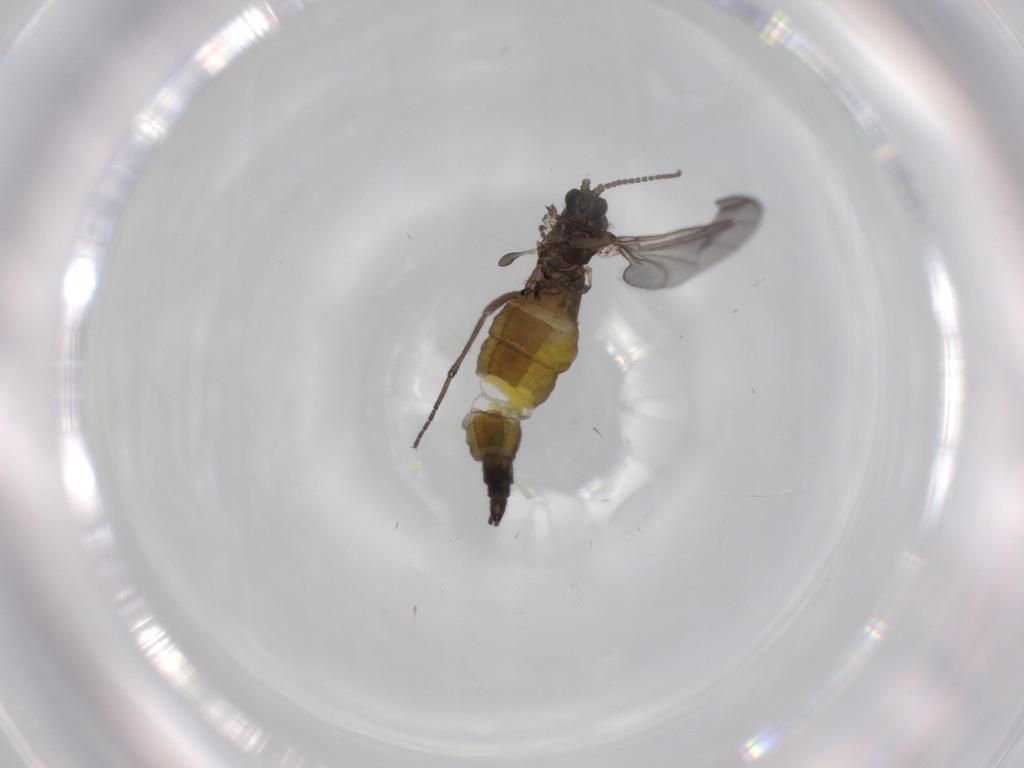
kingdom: Animalia
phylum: Arthropoda
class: Insecta
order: Diptera
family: Sciaridae
